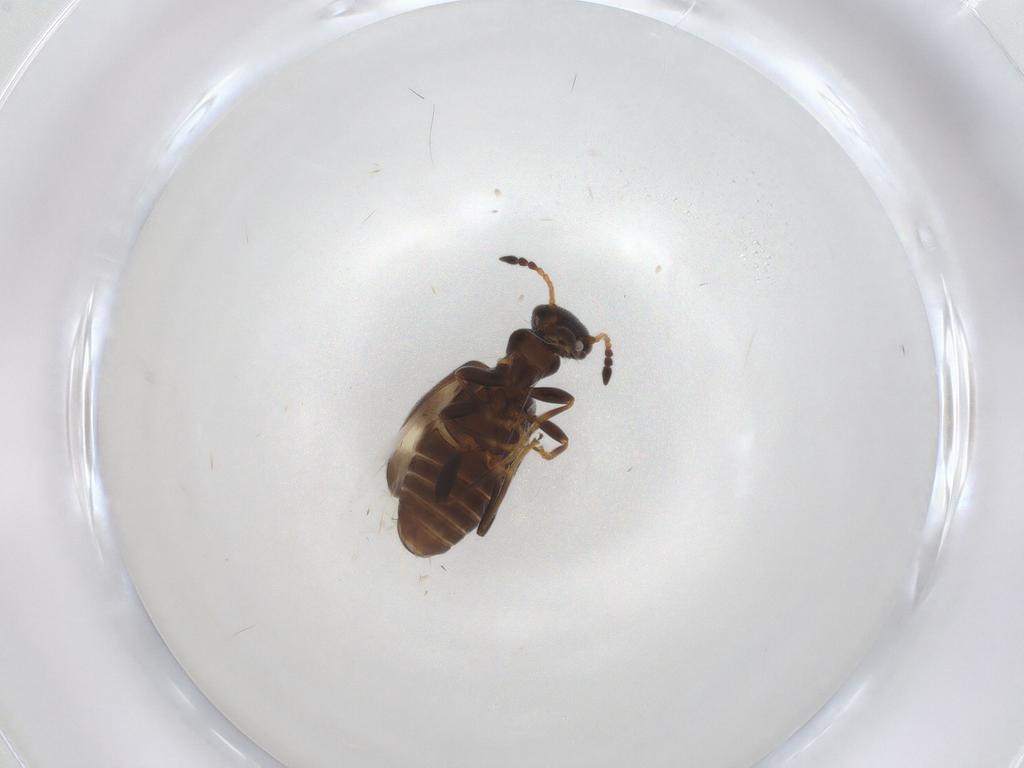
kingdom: Animalia
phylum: Arthropoda
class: Insecta
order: Coleoptera
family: Anthicidae
